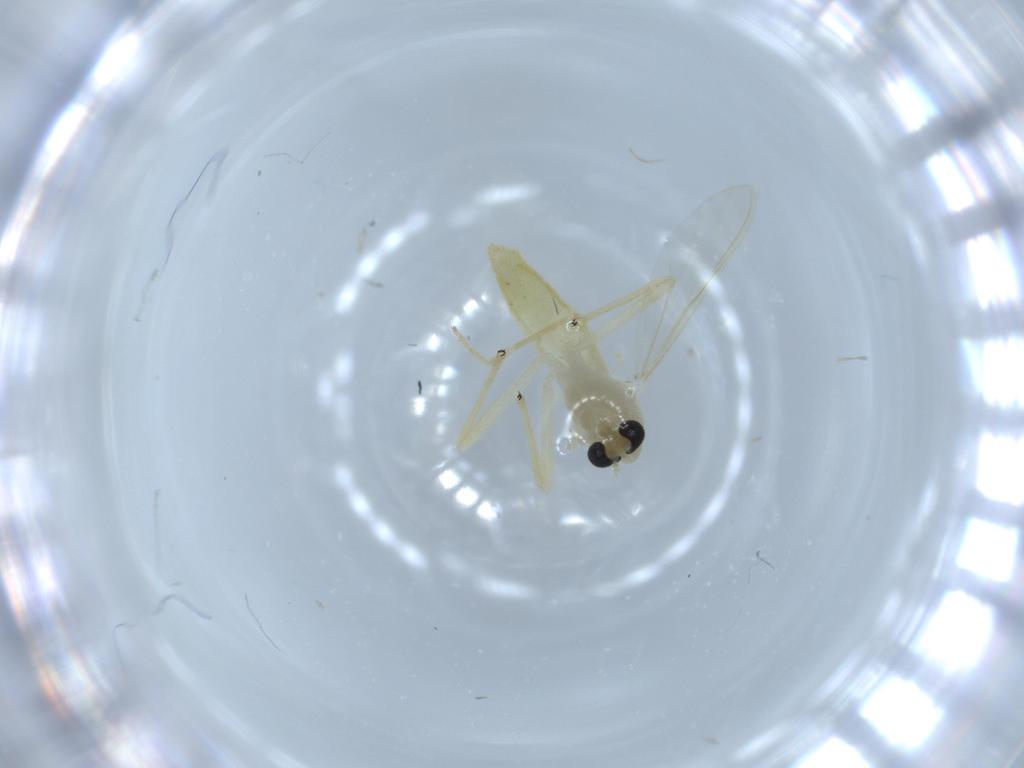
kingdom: Animalia
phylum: Arthropoda
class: Insecta
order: Diptera
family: Chironomidae
